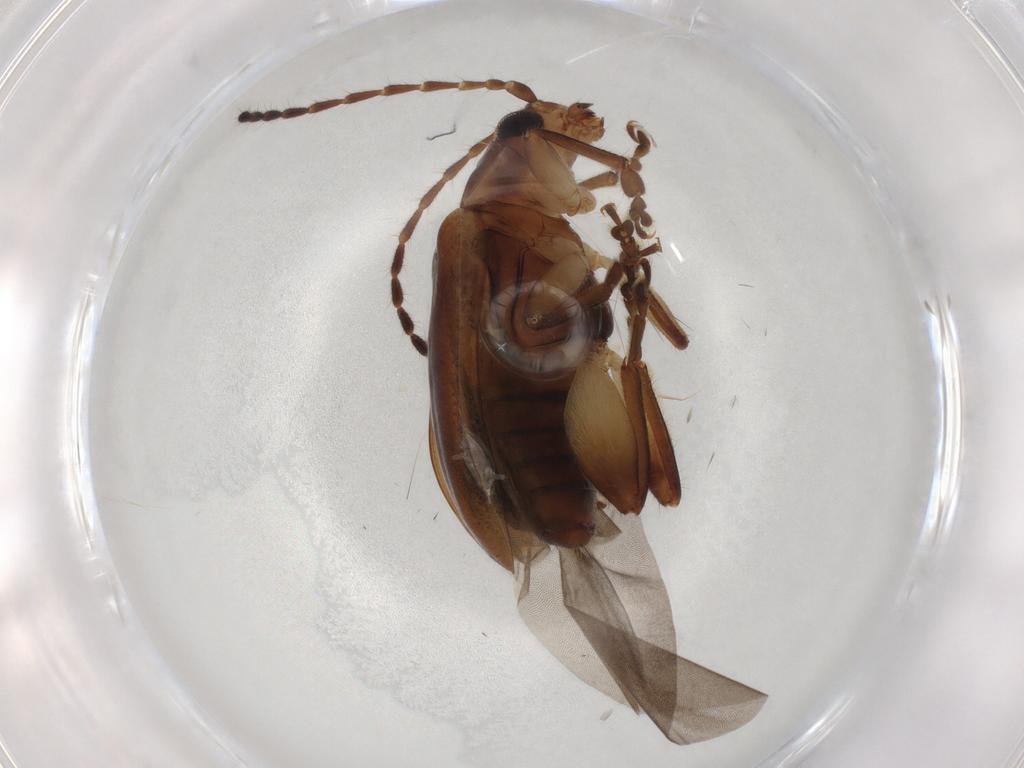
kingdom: Animalia
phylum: Arthropoda
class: Insecta
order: Coleoptera
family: Chrysomelidae
